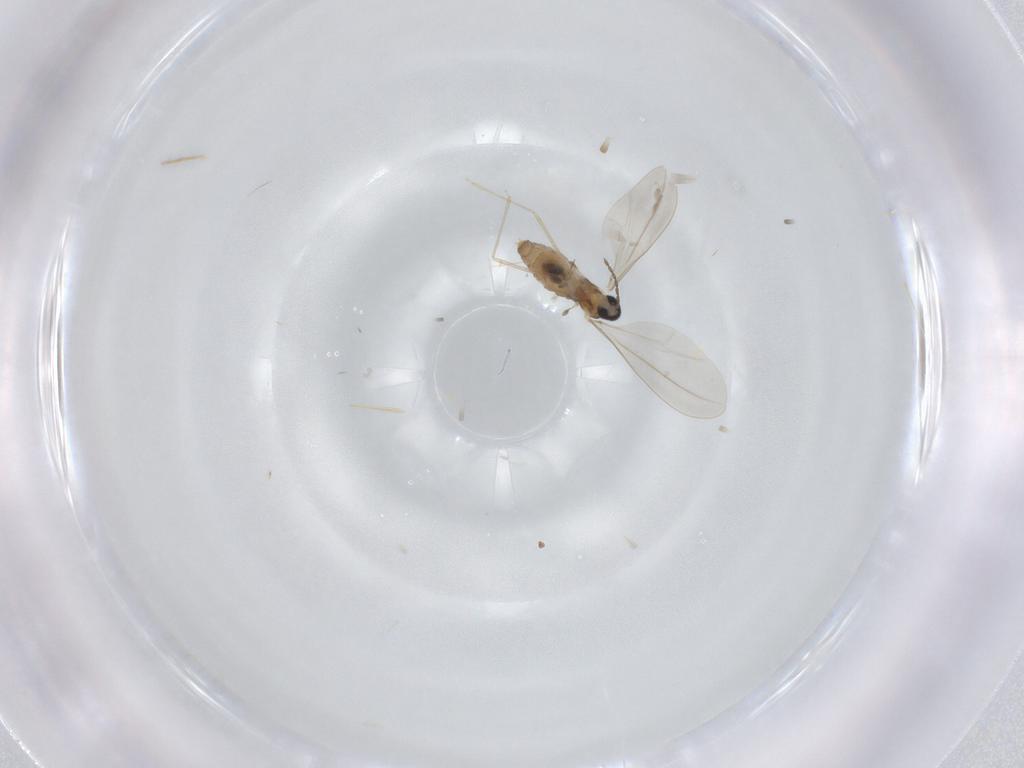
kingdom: Animalia
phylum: Arthropoda
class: Insecta
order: Diptera
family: Cecidomyiidae
